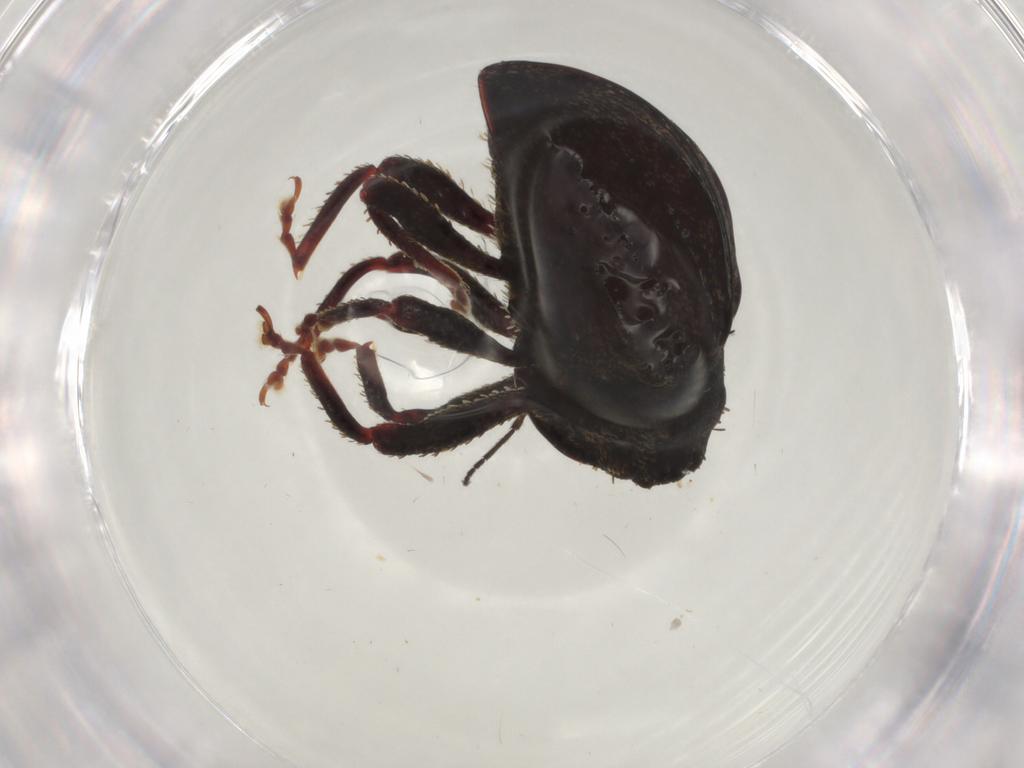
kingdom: Animalia
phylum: Arthropoda
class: Insecta
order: Coleoptera
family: Curculionidae
